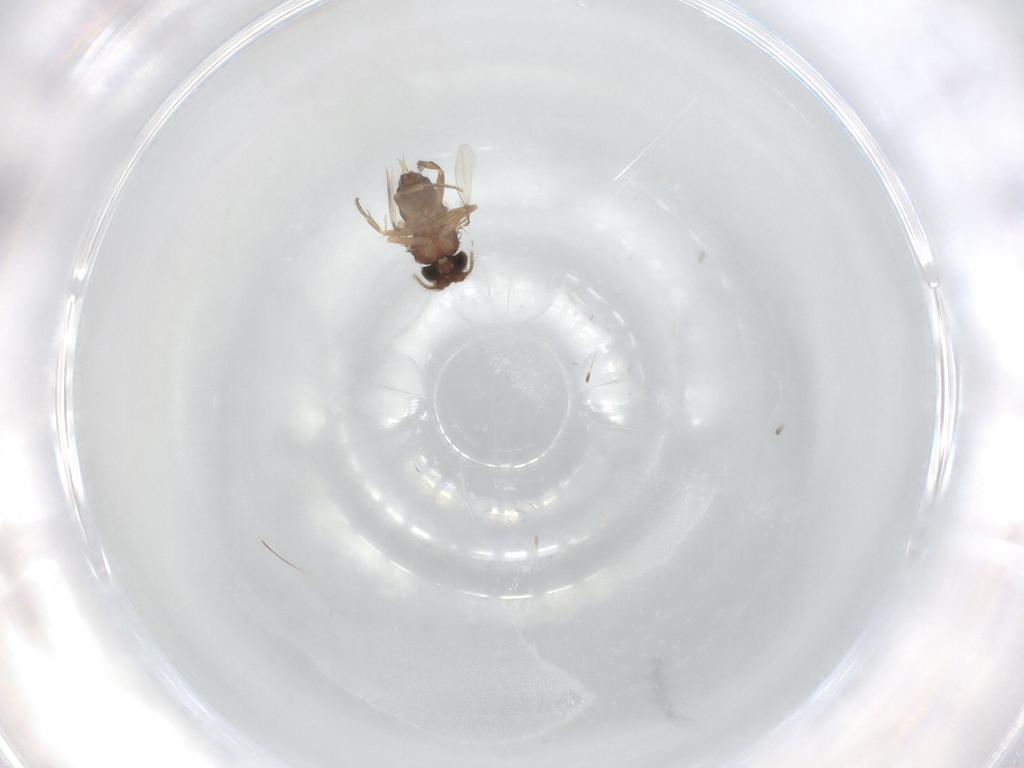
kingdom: Animalia
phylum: Arthropoda
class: Insecta
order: Diptera
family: Phoridae
